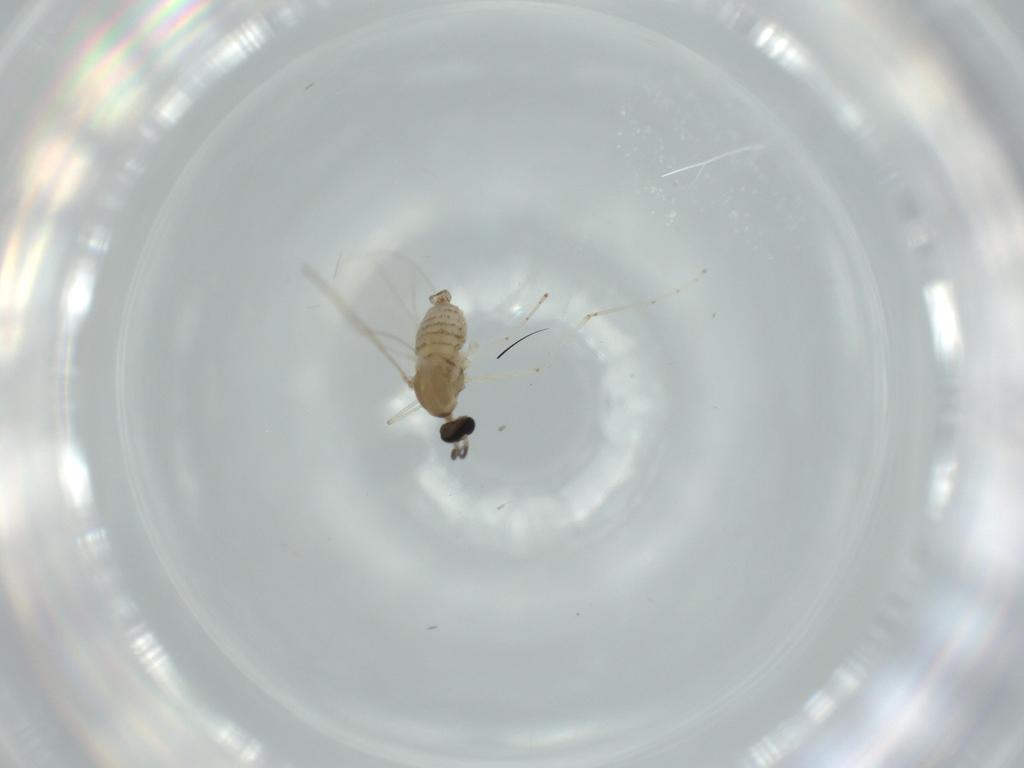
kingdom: Animalia
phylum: Arthropoda
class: Insecta
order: Diptera
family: Cecidomyiidae
